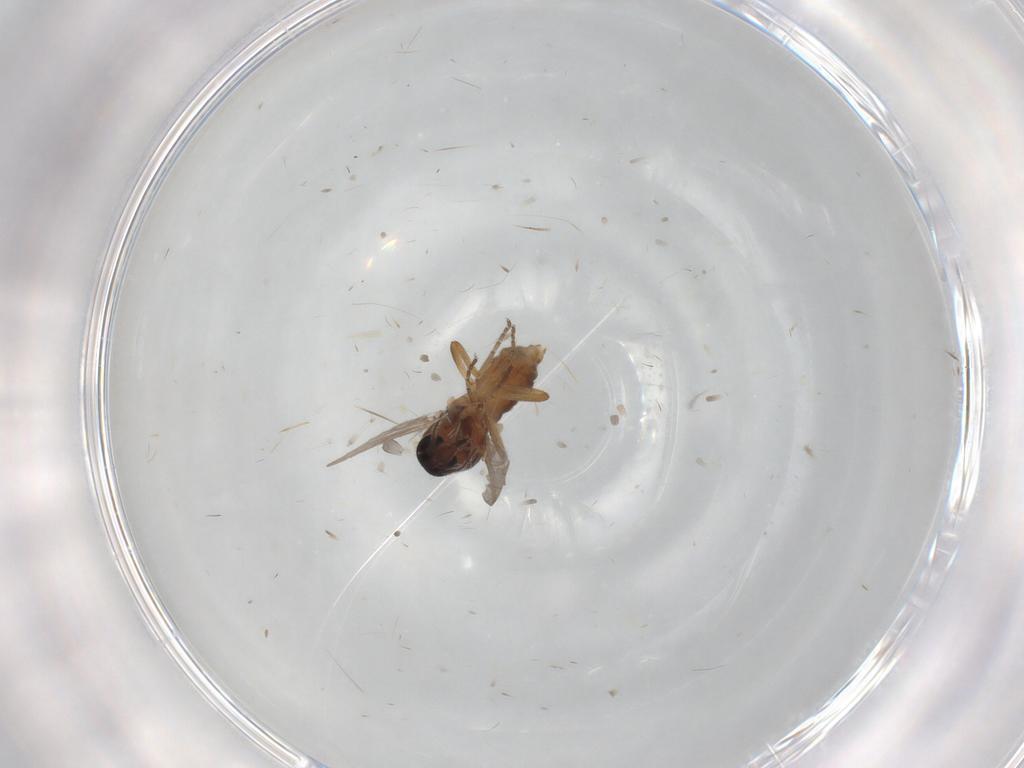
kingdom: Animalia
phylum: Arthropoda
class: Insecta
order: Diptera
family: Ceratopogonidae
